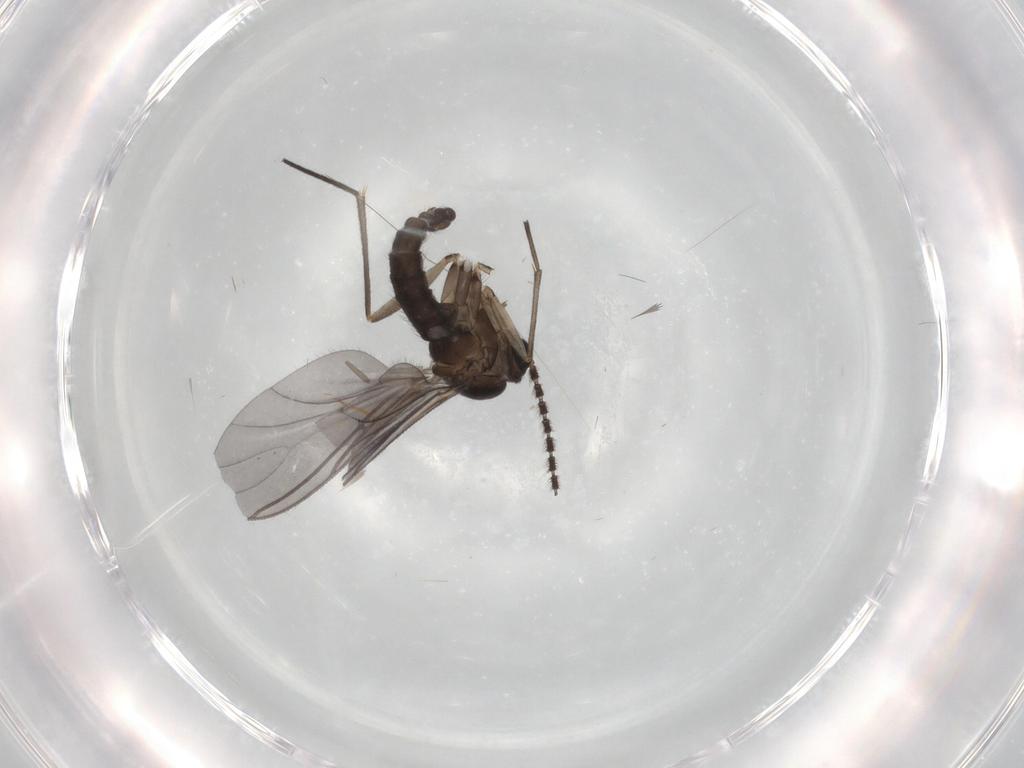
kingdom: Animalia
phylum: Arthropoda
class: Insecta
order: Diptera
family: Sciaridae
